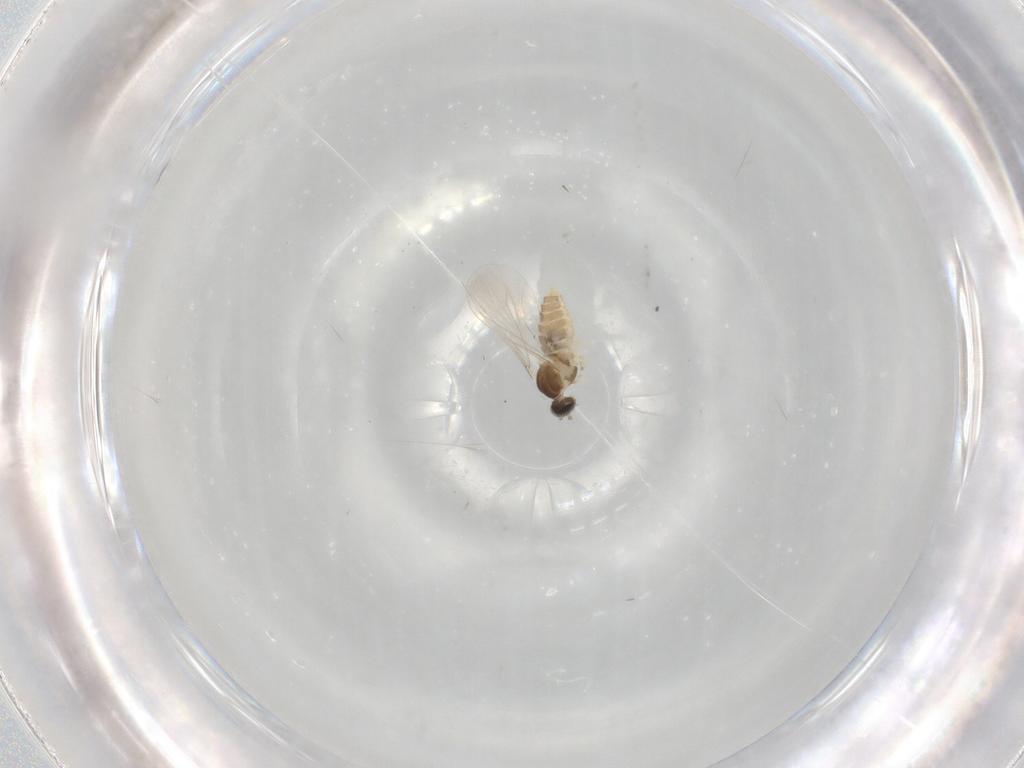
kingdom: Animalia
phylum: Arthropoda
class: Insecta
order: Diptera
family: Cecidomyiidae
